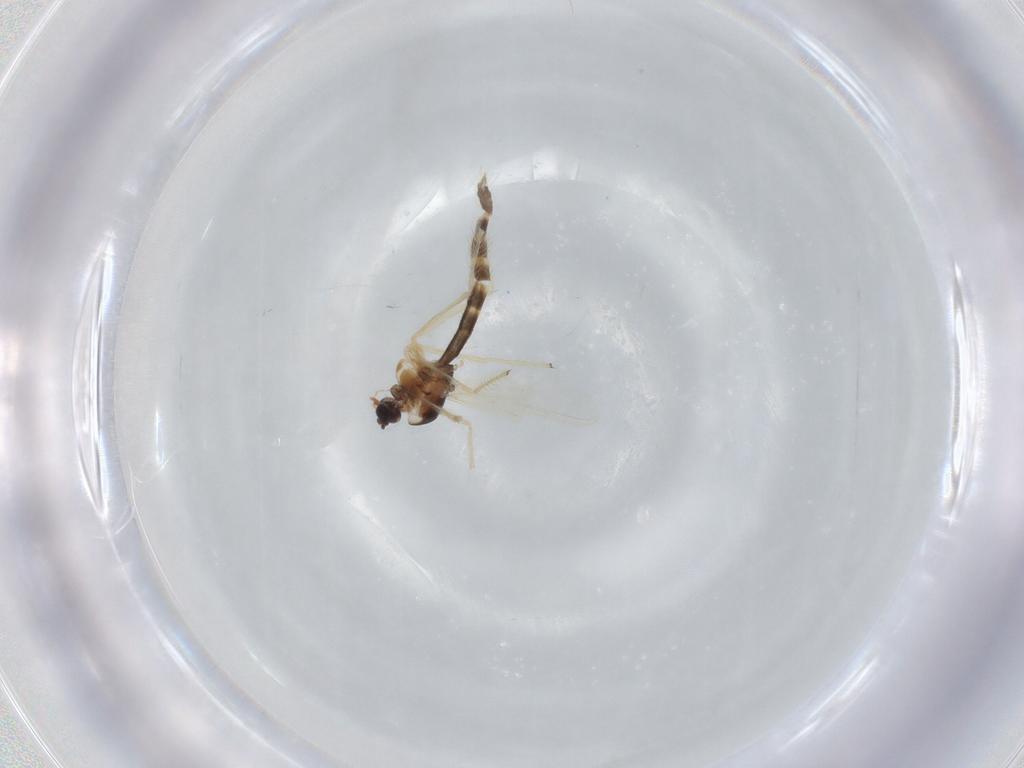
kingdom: Animalia
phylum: Arthropoda
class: Insecta
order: Diptera
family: Chironomidae
